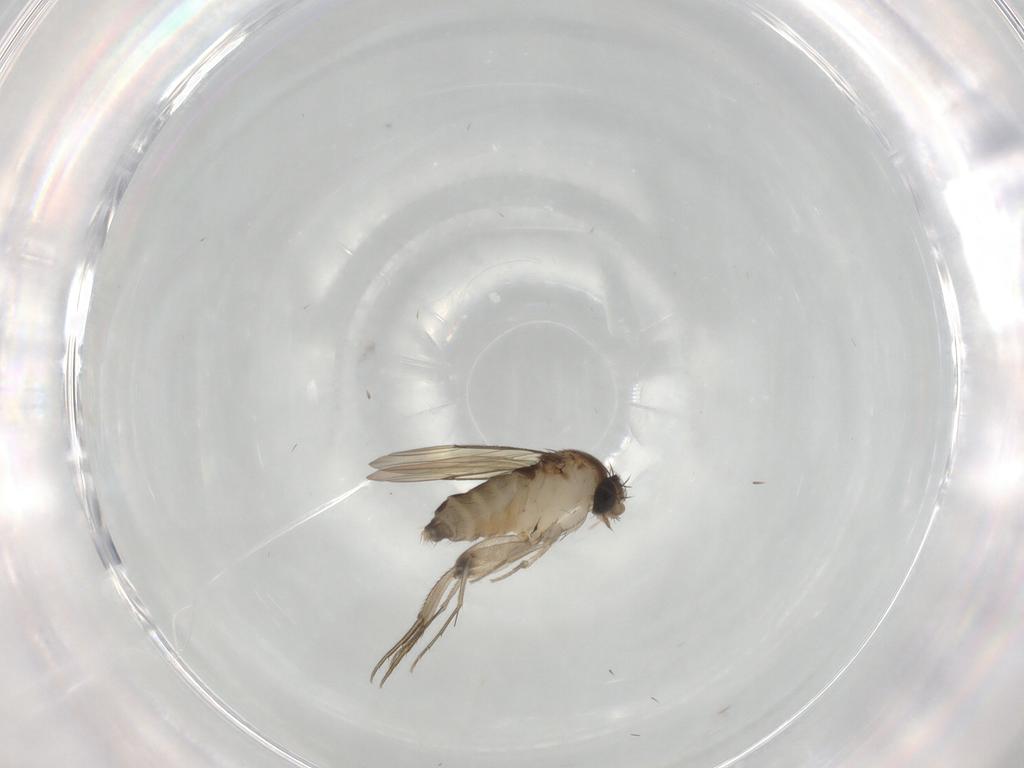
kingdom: Animalia
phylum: Arthropoda
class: Insecta
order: Diptera
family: Phoridae
